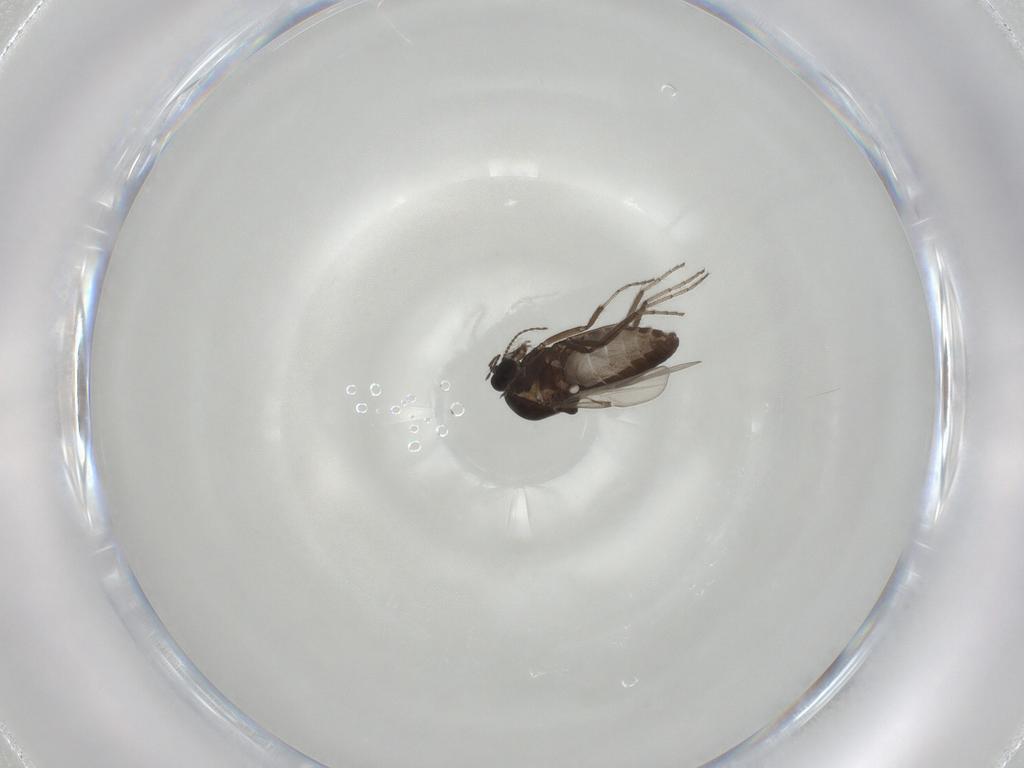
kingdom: Animalia
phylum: Arthropoda
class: Insecta
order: Diptera
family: Ceratopogonidae
